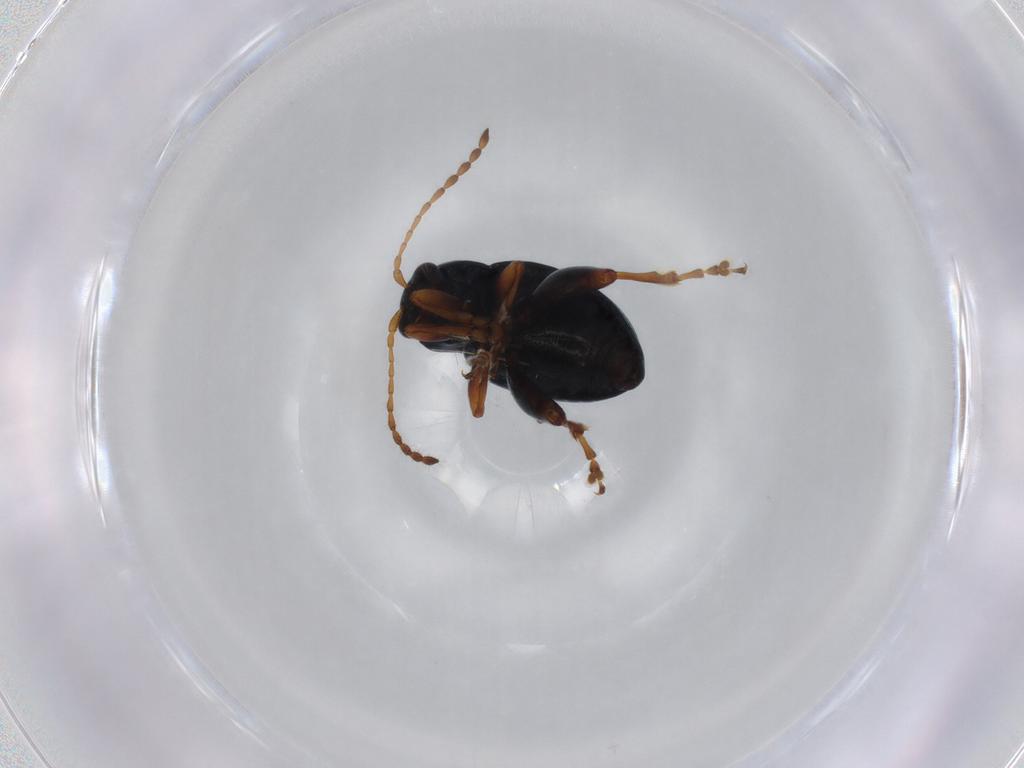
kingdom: Animalia
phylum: Arthropoda
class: Insecta
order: Coleoptera
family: Chrysomelidae
